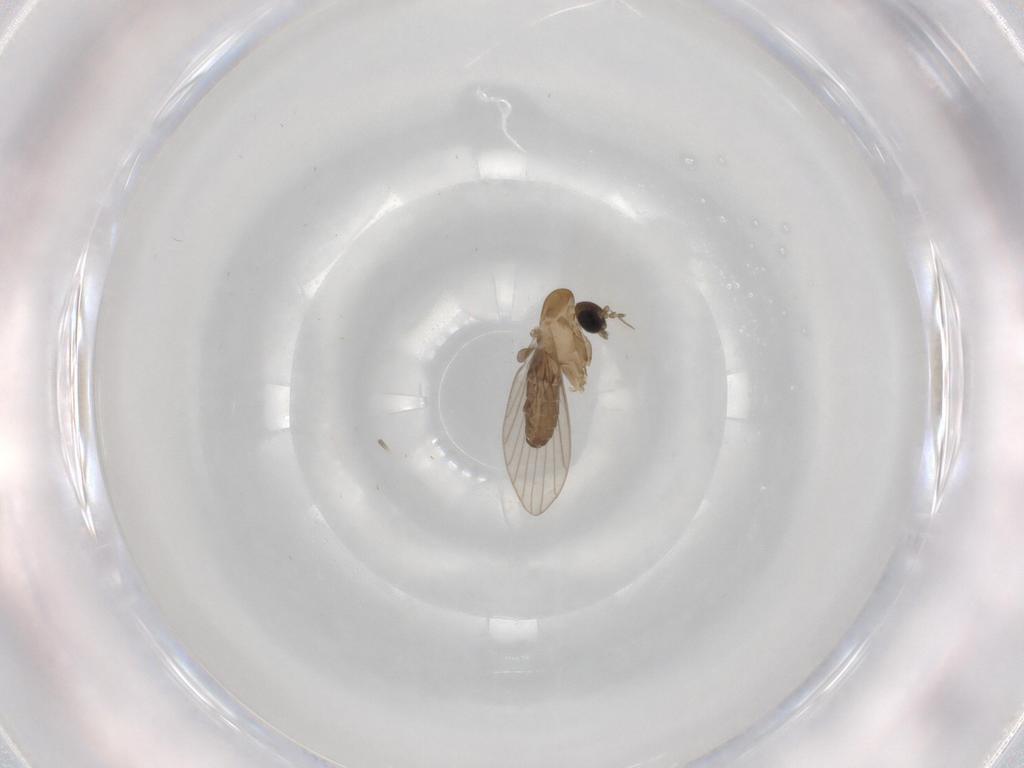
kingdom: Animalia
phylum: Arthropoda
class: Insecta
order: Diptera
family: Psychodidae
